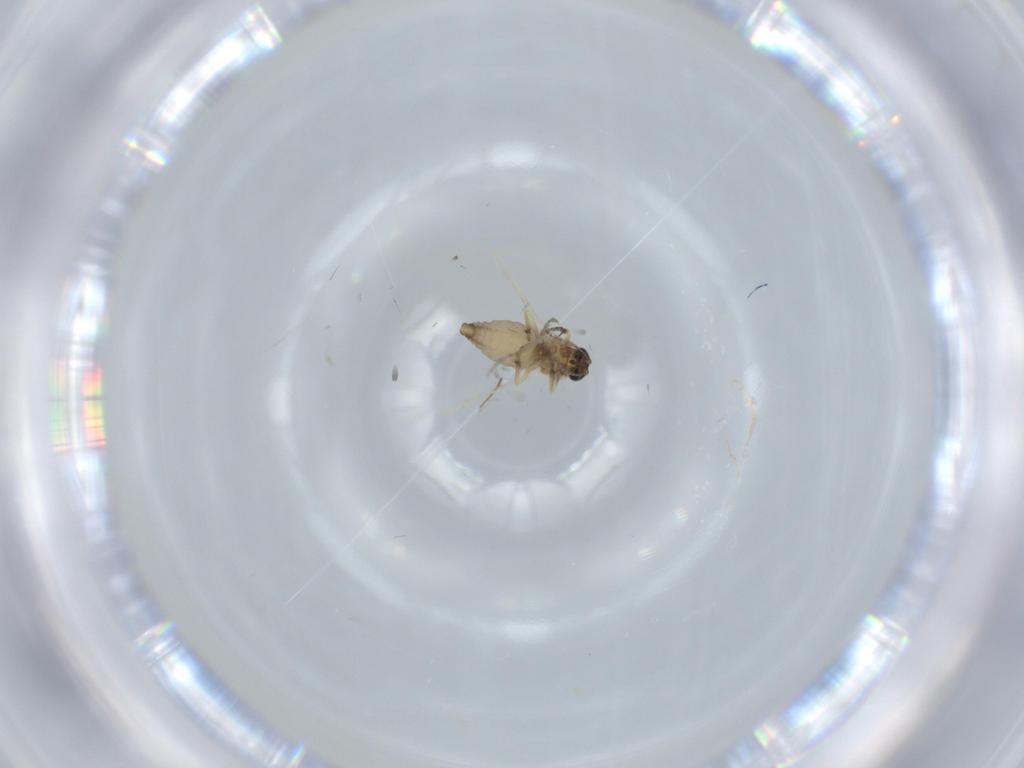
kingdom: Animalia
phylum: Arthropoda
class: Insecta
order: Diptera
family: Ceratopogonidae
